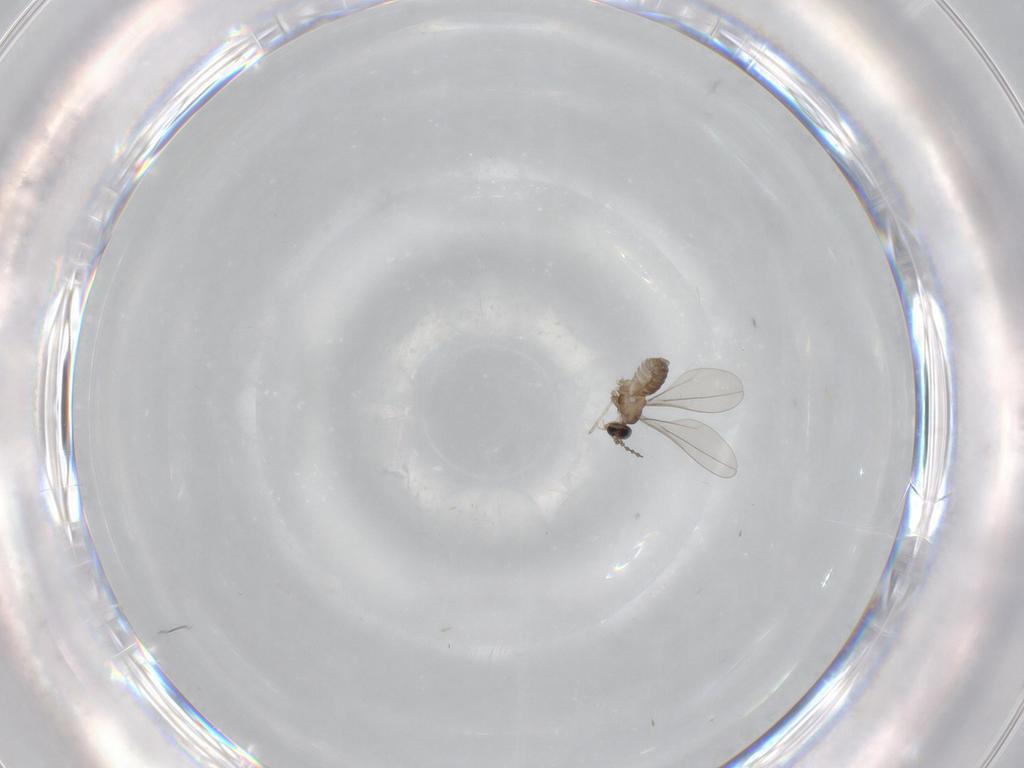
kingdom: Animalia
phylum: Arthropoda
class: Insecta
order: Diptera
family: Cecidomyiidae
